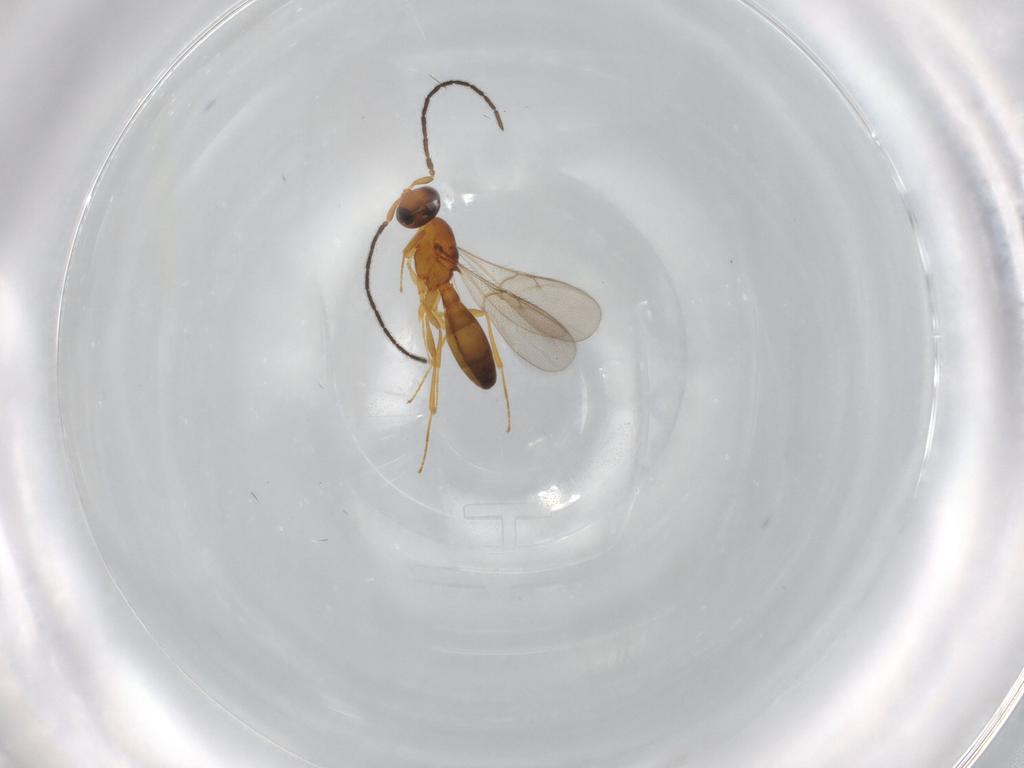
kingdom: Animalia
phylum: Arthropoda
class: Insecta
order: Hymenoptera
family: Scelionidae
